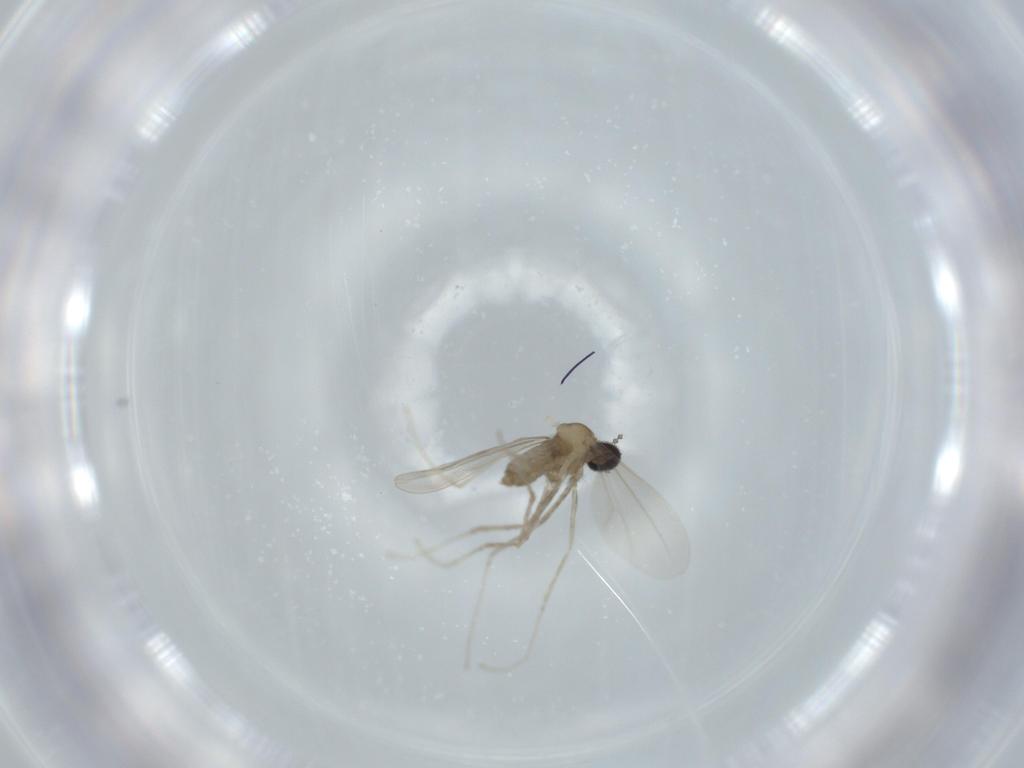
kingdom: Animalia
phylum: Arthropoda
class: Insecta
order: Diptera
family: Cecidomyiidae
